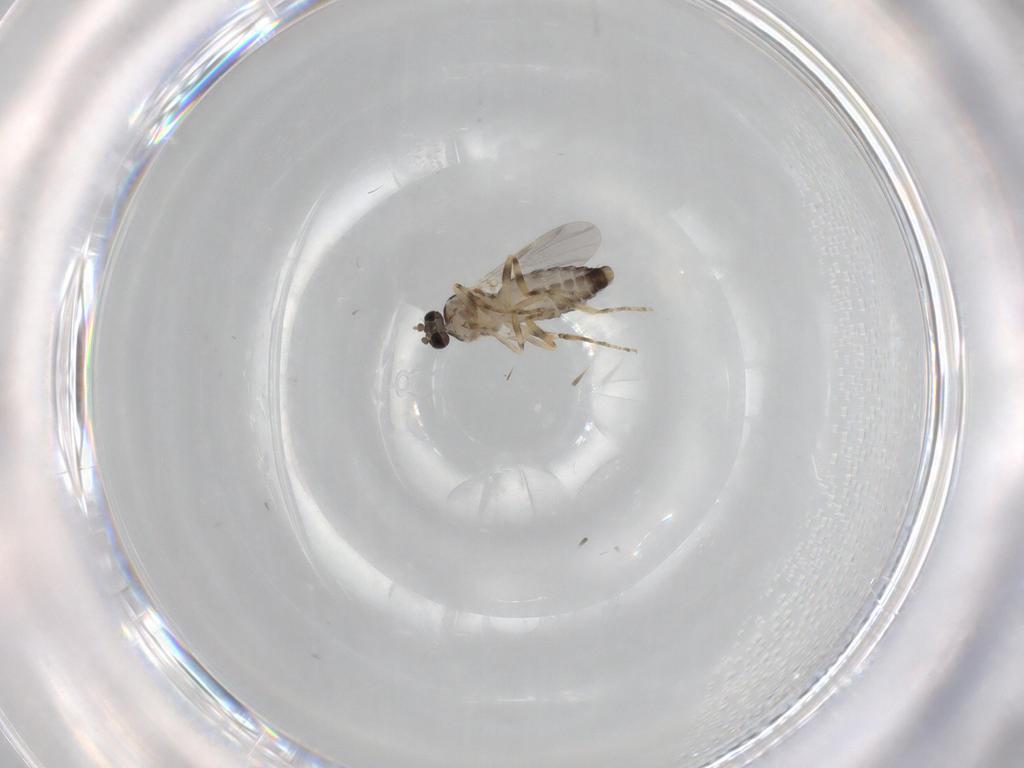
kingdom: Animalia
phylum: Arthropoda
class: Insecta
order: Diptera
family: Ceratopogonidae
